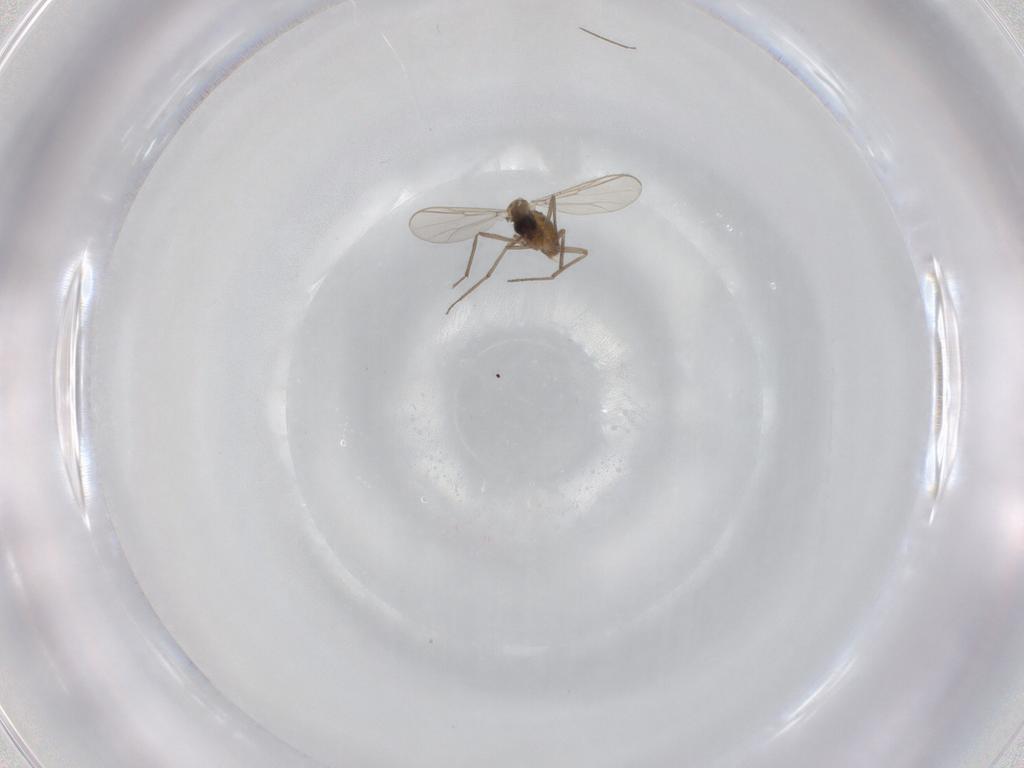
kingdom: Animalia
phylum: Arthropoda
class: Insecta
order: Diptera
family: Chironomidae
